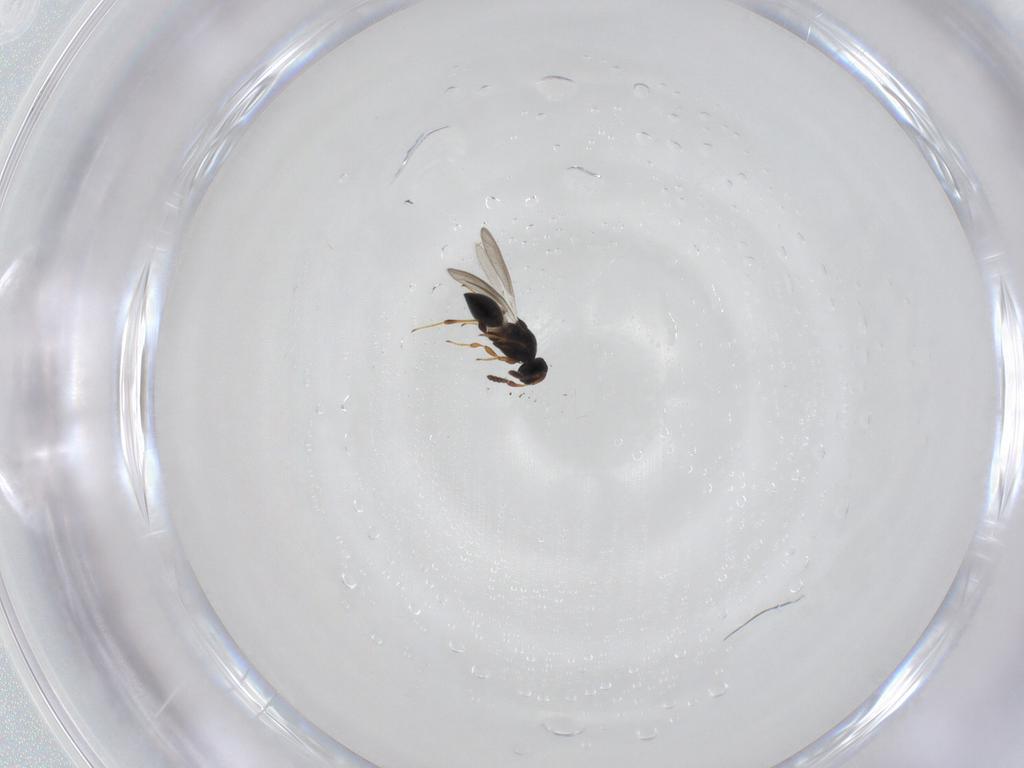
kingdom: Animalia
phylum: Arthropoda
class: Insecta
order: Hymenoptera
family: Platygastridae
